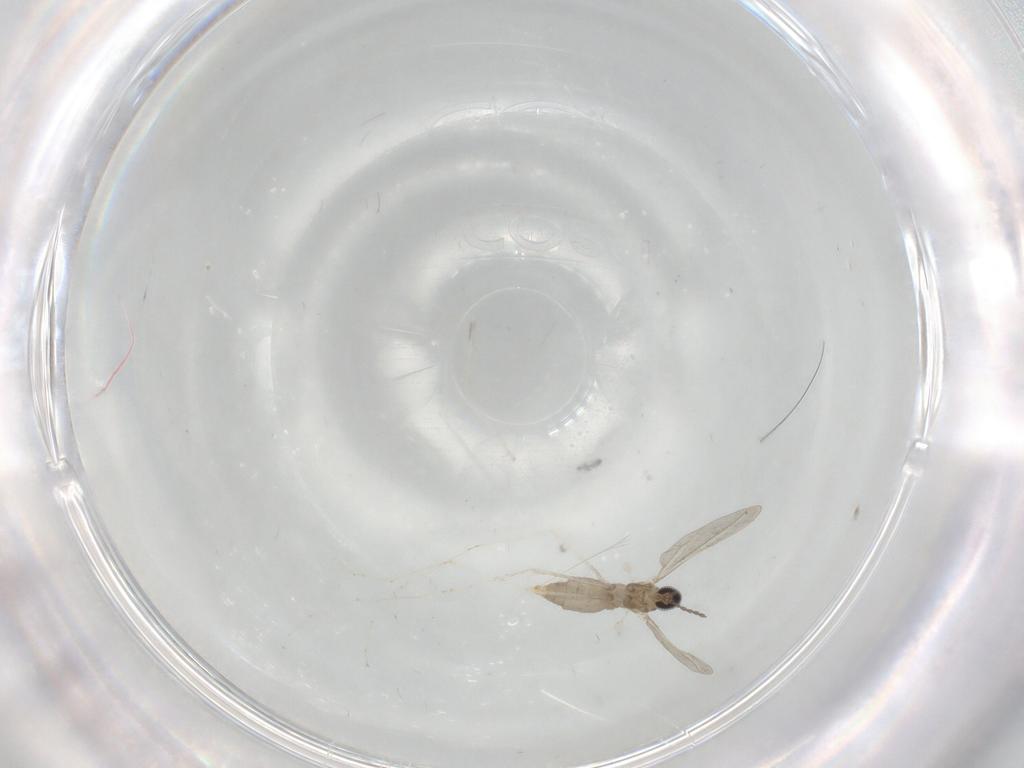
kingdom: Animalia
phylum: Arthropoda
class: Insecta
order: Diptera
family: Cecidomyiidae
